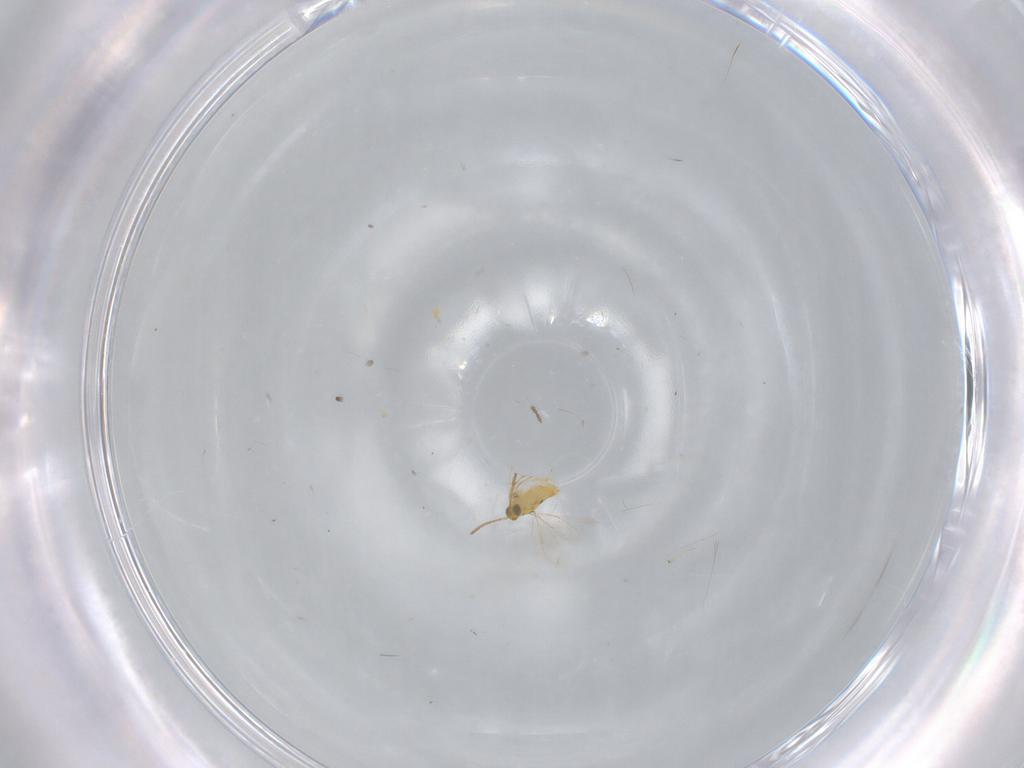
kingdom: Animalia
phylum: Arthropoda
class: Insecta
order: Hymenoptera
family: Aphelinidae
